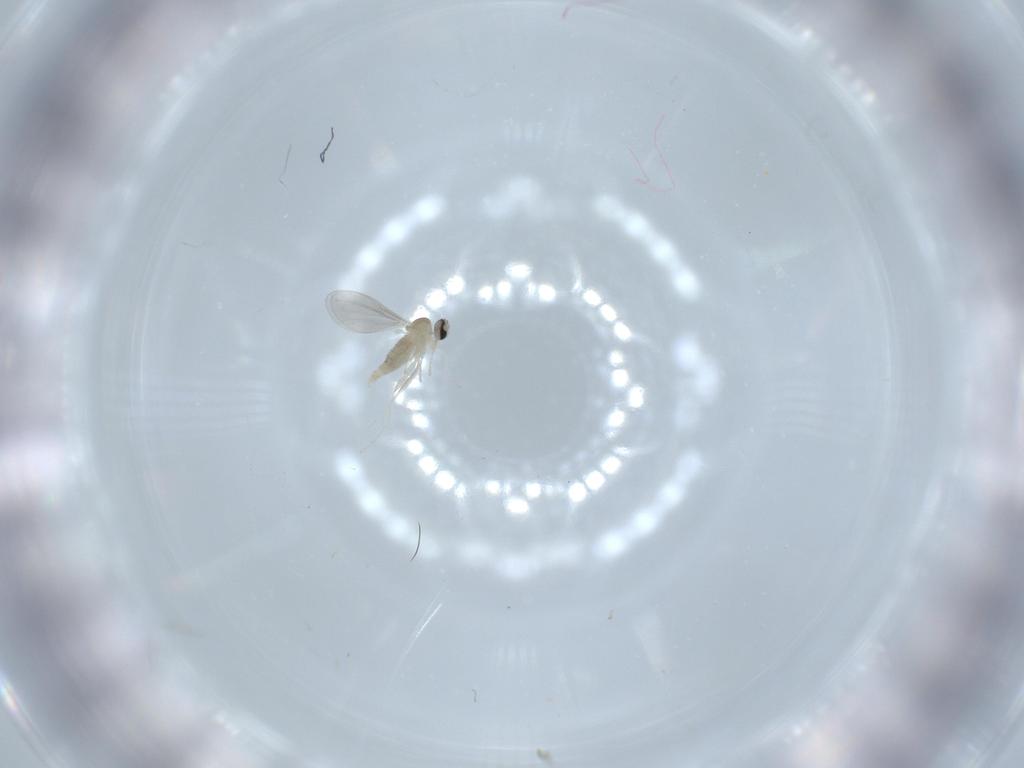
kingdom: Animalia
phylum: Arthropoda
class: Insecta
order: Diptera
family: Cecidomyiidae
